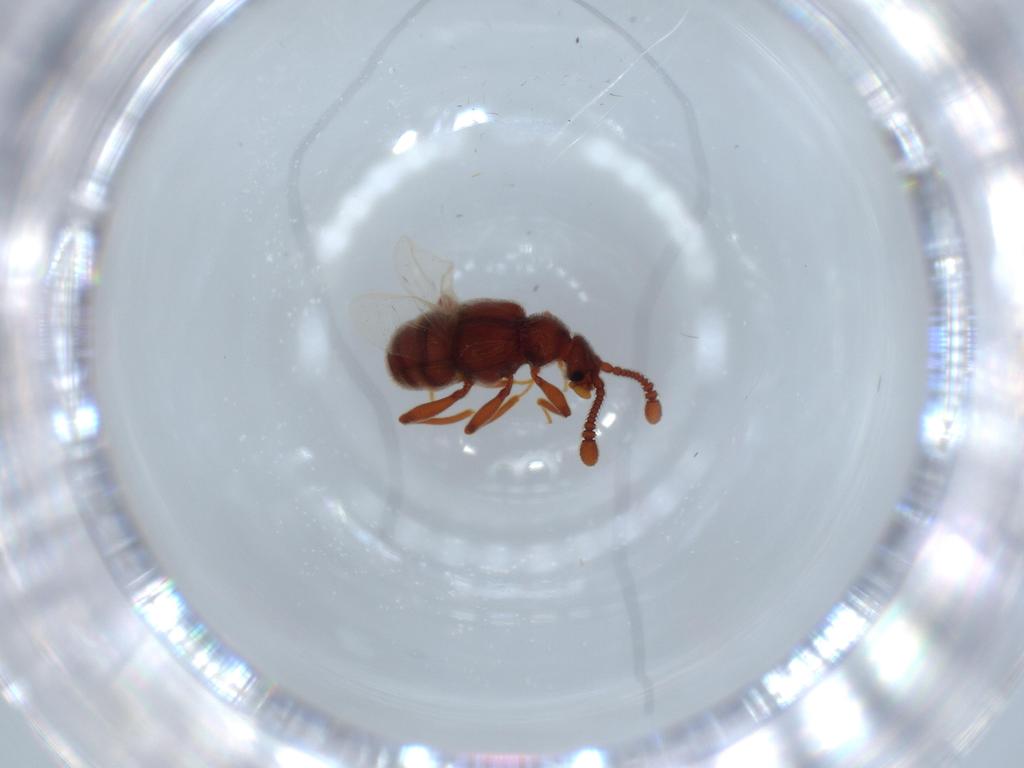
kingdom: Animalia
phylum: Arthropoda
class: Insecta
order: Coleoptera
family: Staphylinidae
